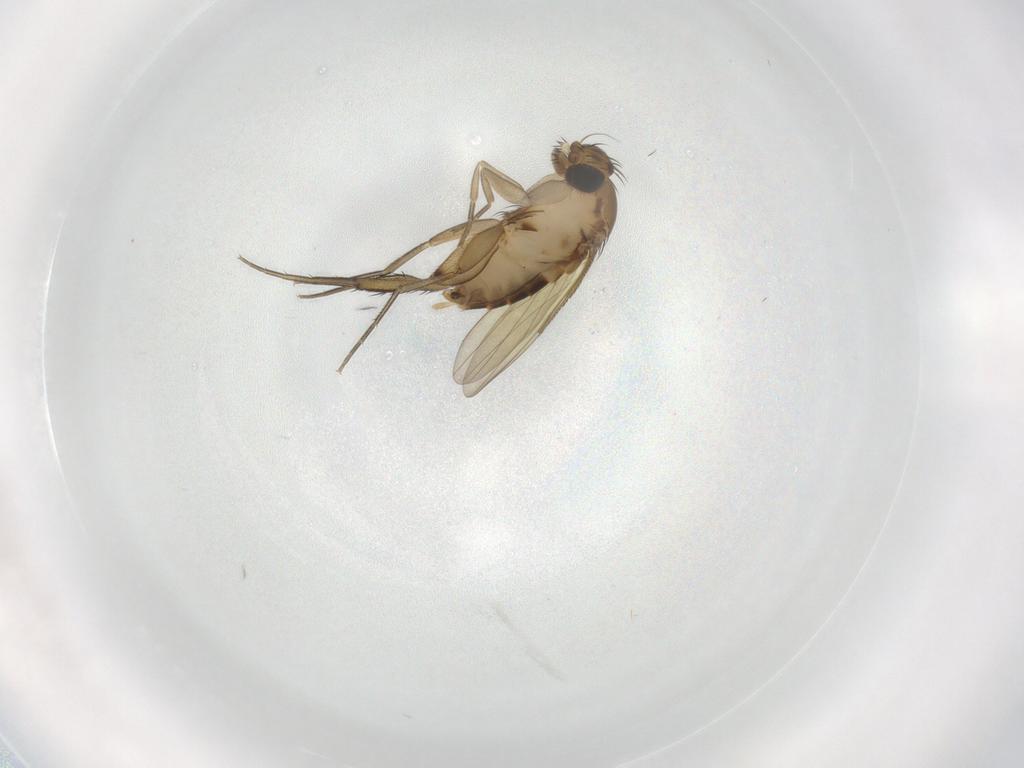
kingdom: Animalia
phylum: Arthropoda
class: Insecta
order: Diptera
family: Phoridae
